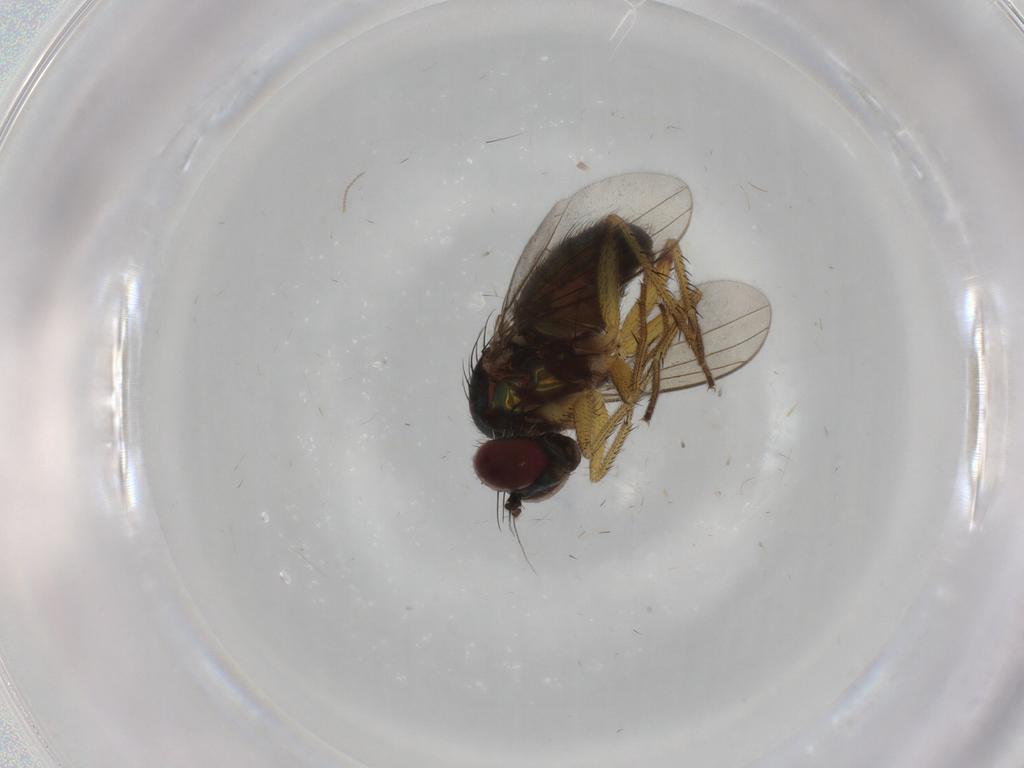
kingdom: Animalia
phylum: Arthropoda
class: Insecta
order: Diptera
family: Dolichopodidae
